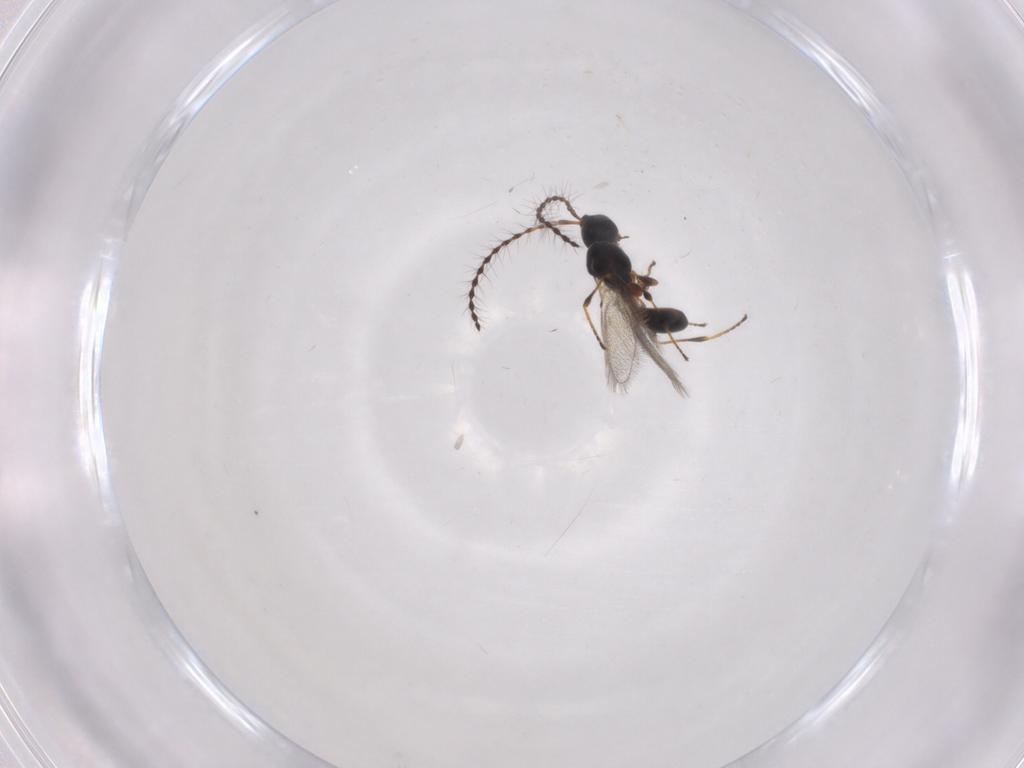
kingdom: Animalia
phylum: Arthropoda
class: Insecta
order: Hymenoptera
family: Diapriidae
